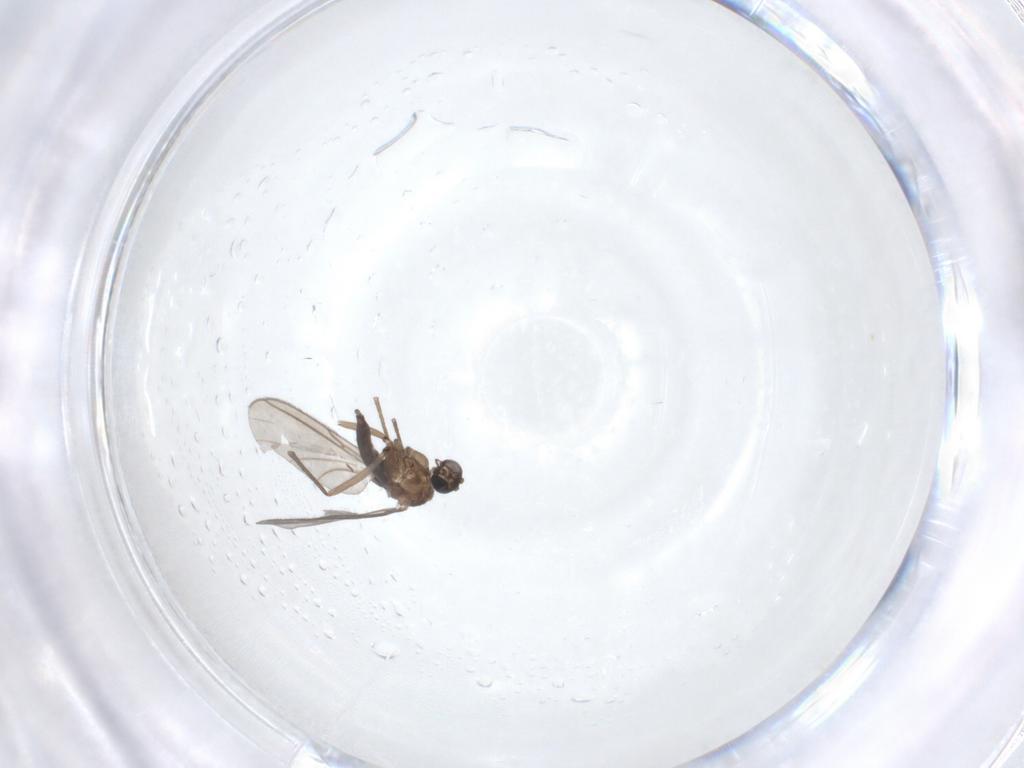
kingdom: Animalia
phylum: Arthropoda
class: Insecta
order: Diptera
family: Sciaridae
